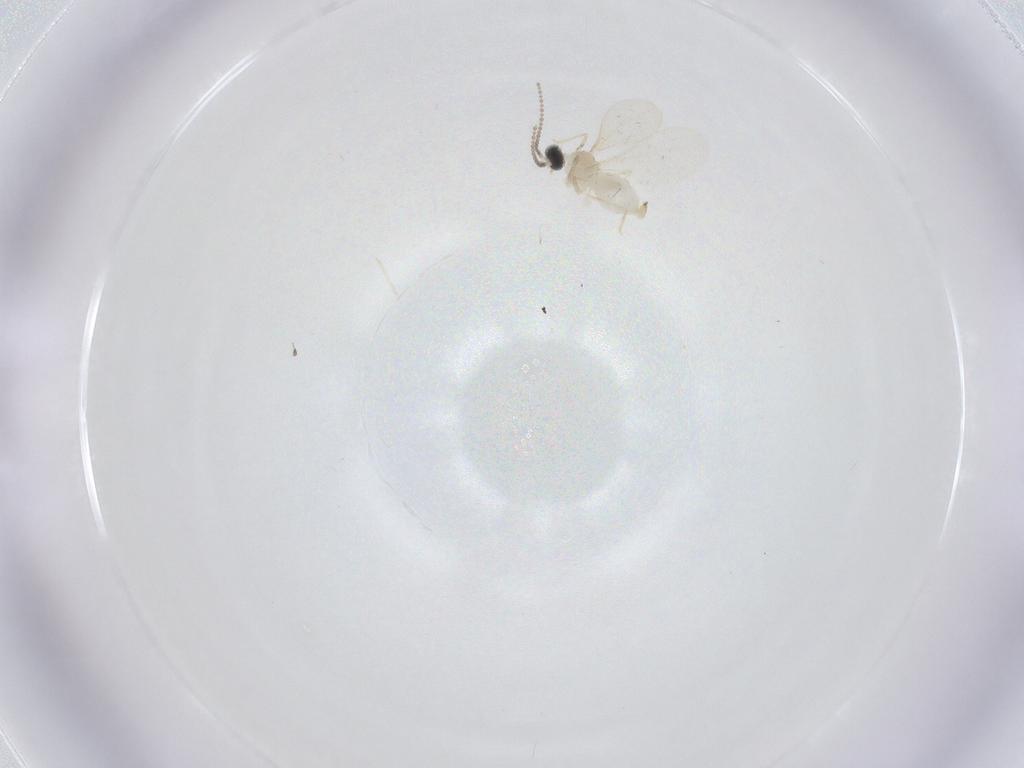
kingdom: Animalia
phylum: Arthropoda
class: Insecta
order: Diptera
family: Cecidomyiidae
